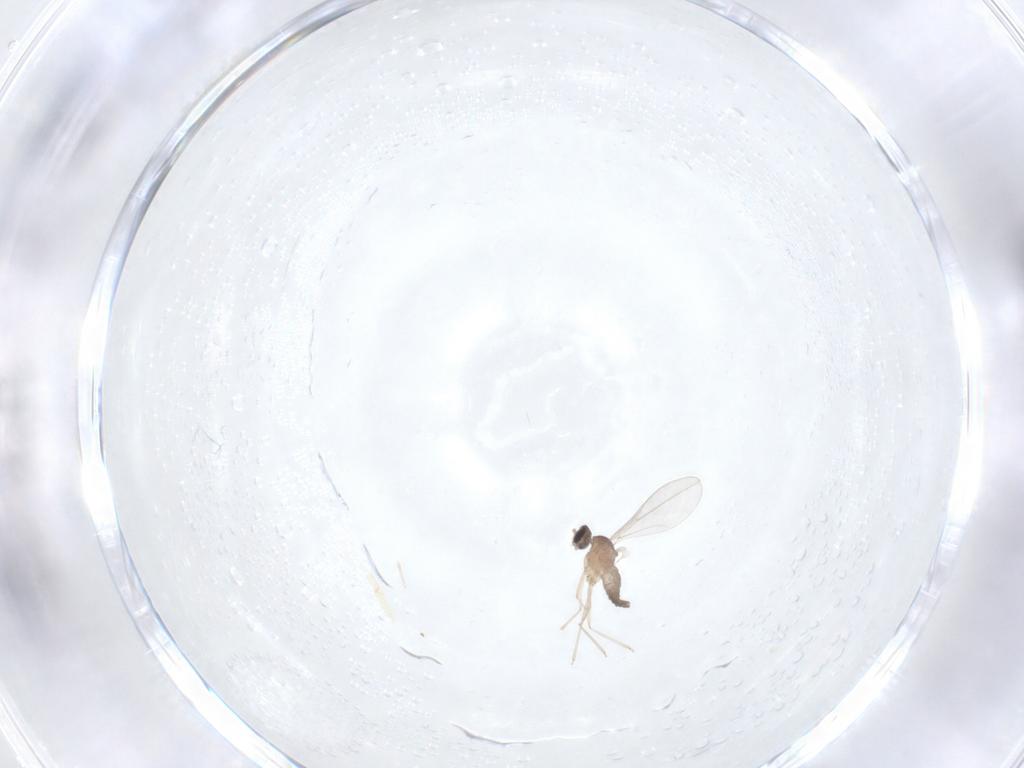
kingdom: Animalia
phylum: Arthropoda
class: Insecta
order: Diptera
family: Cecidomyiidae
